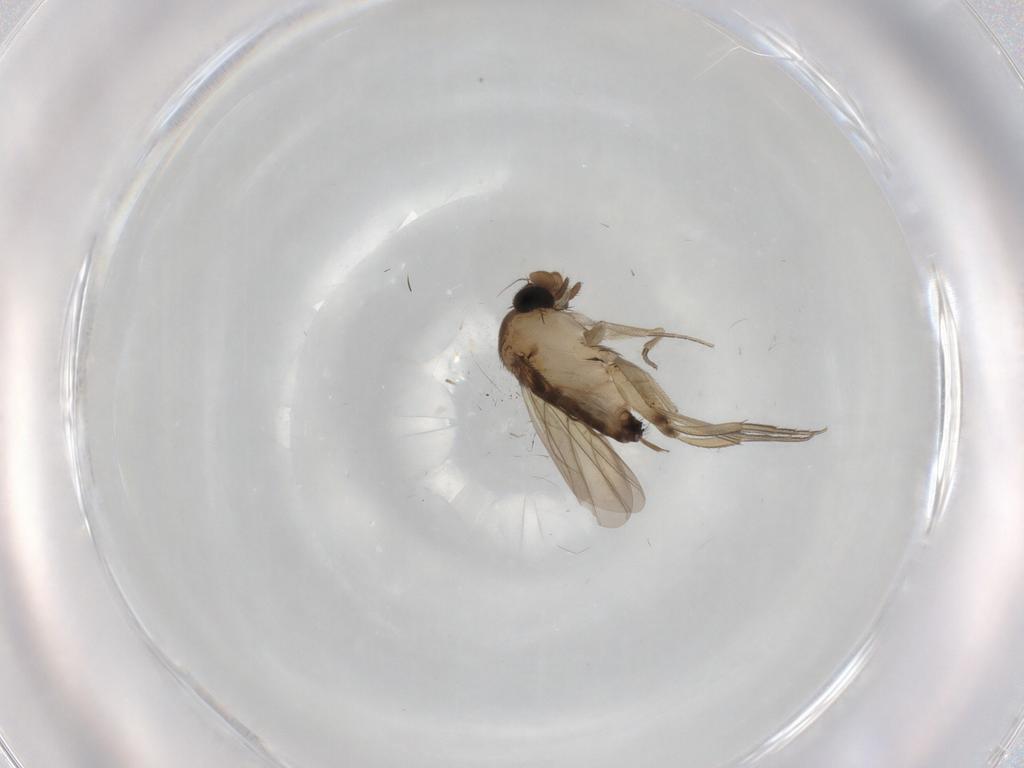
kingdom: Animalia
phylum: Arthropoda
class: Insecta
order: Diptera
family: Phoridae
